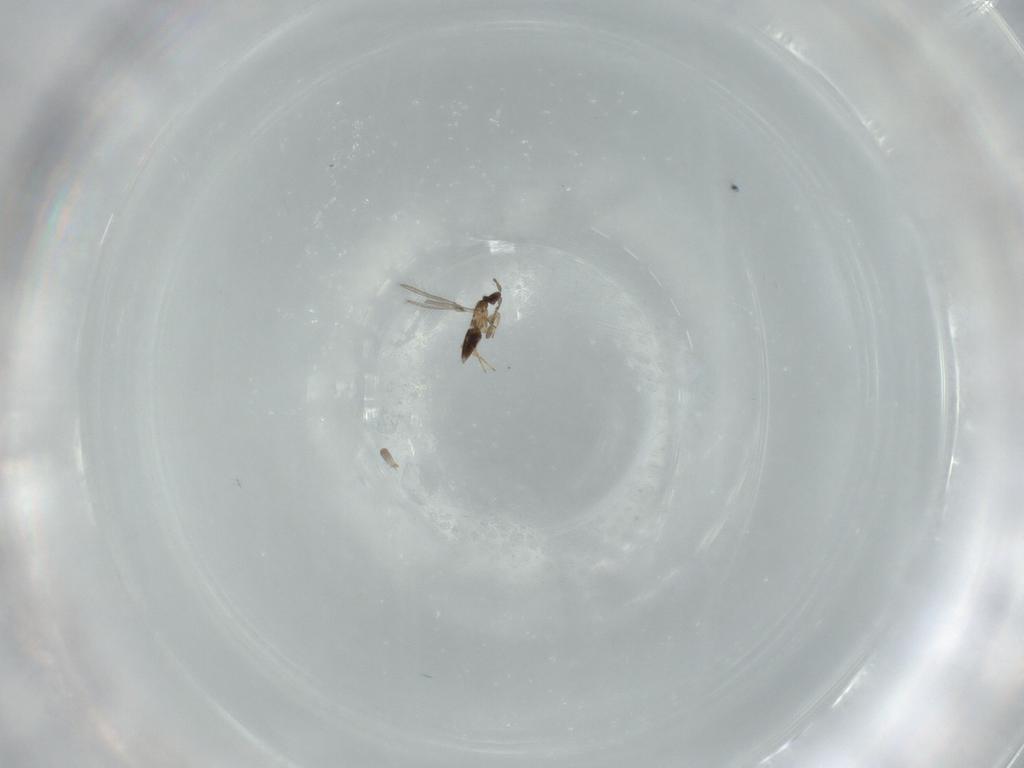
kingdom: Animalia
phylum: Arthropoda
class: Insecta
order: Hymenoptera
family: Mymaridae
